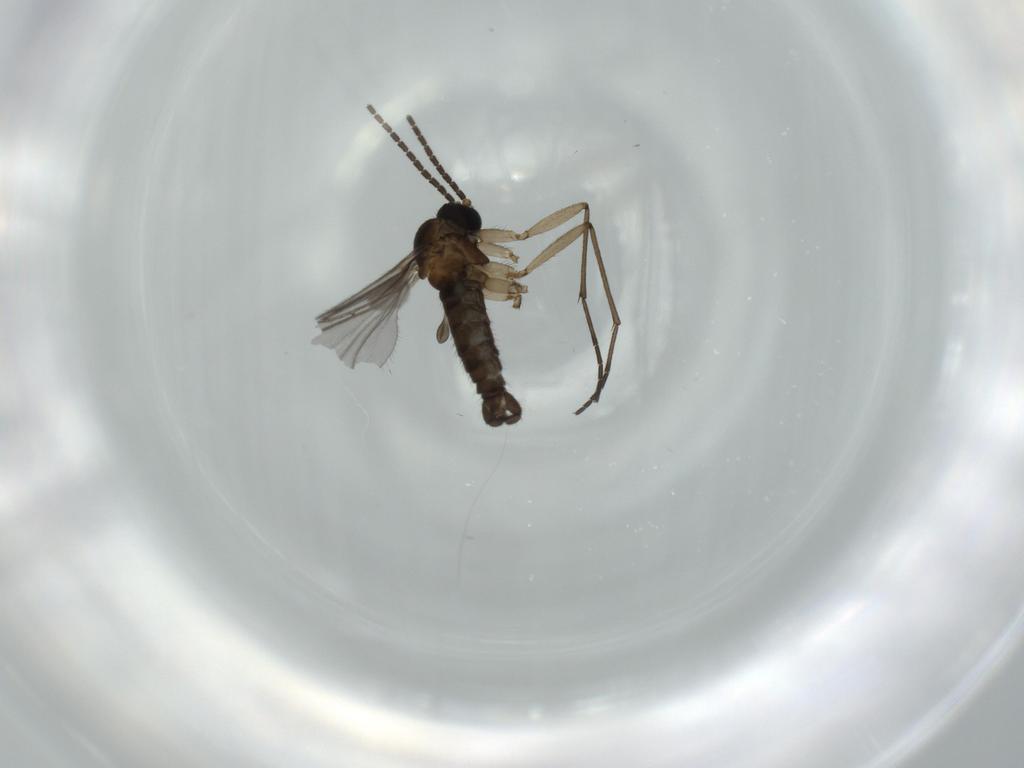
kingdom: Animalia
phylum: Arthropoda
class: Insecta
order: Diptera
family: Sciaridae
